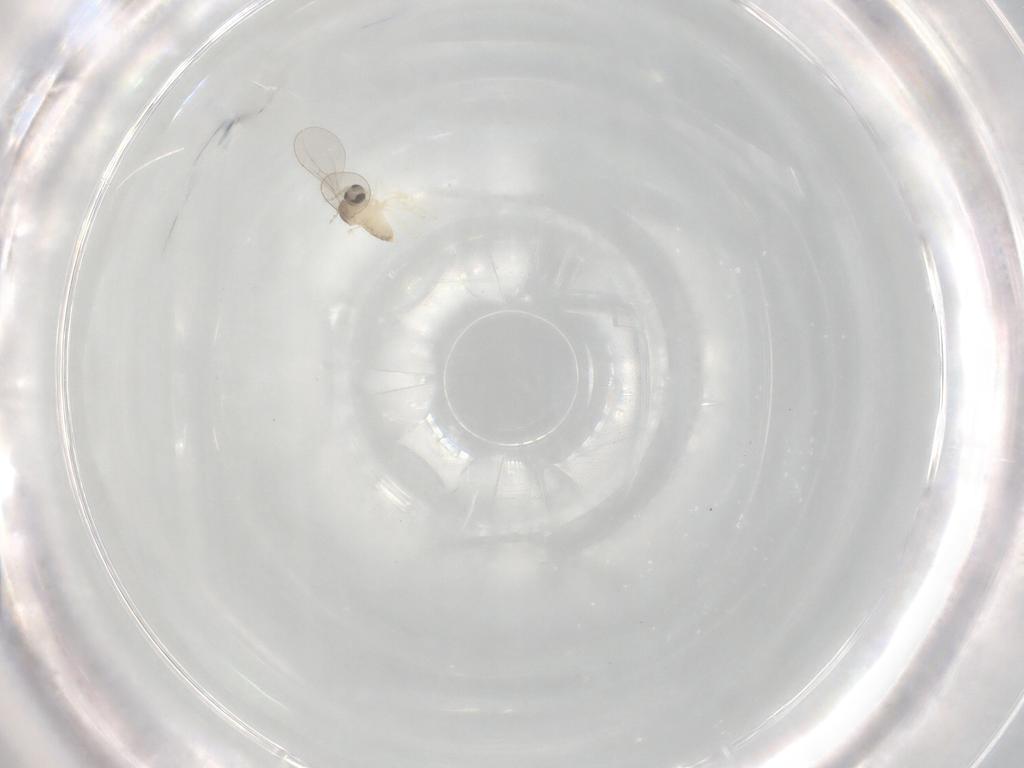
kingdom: Animalia
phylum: Arthropoda
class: Insecta
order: Diptera
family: Cecidomyiidae
